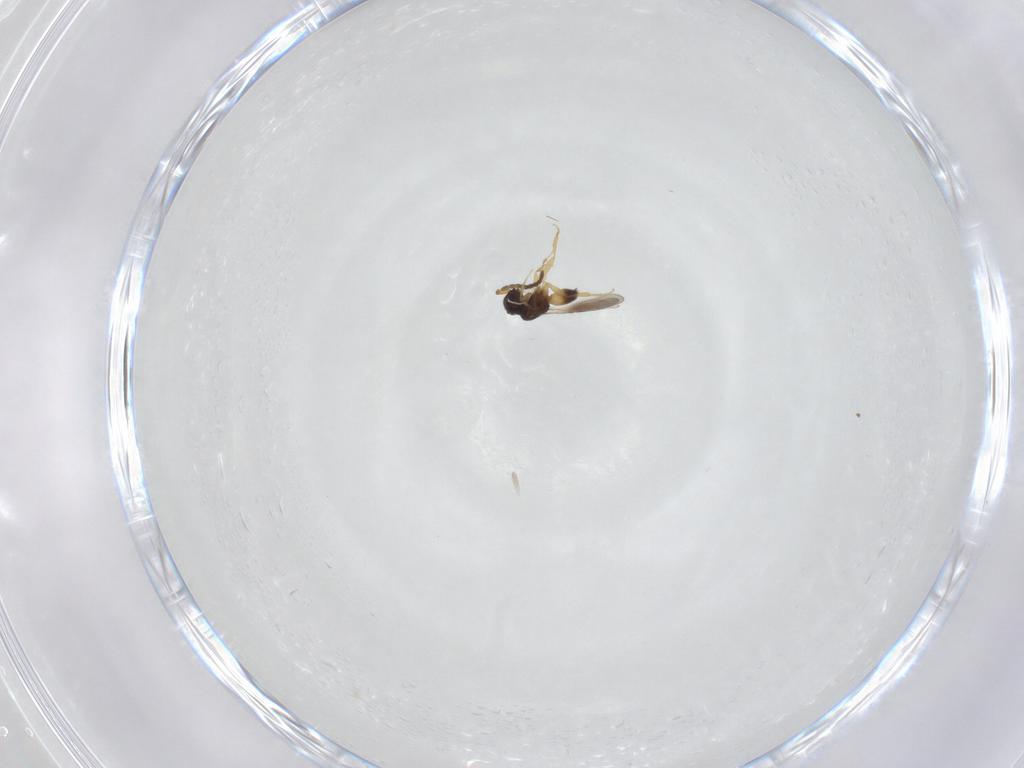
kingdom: Animalia
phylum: Arthropoda
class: Insecta
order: Hymenoptera
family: Ceraphronidae
